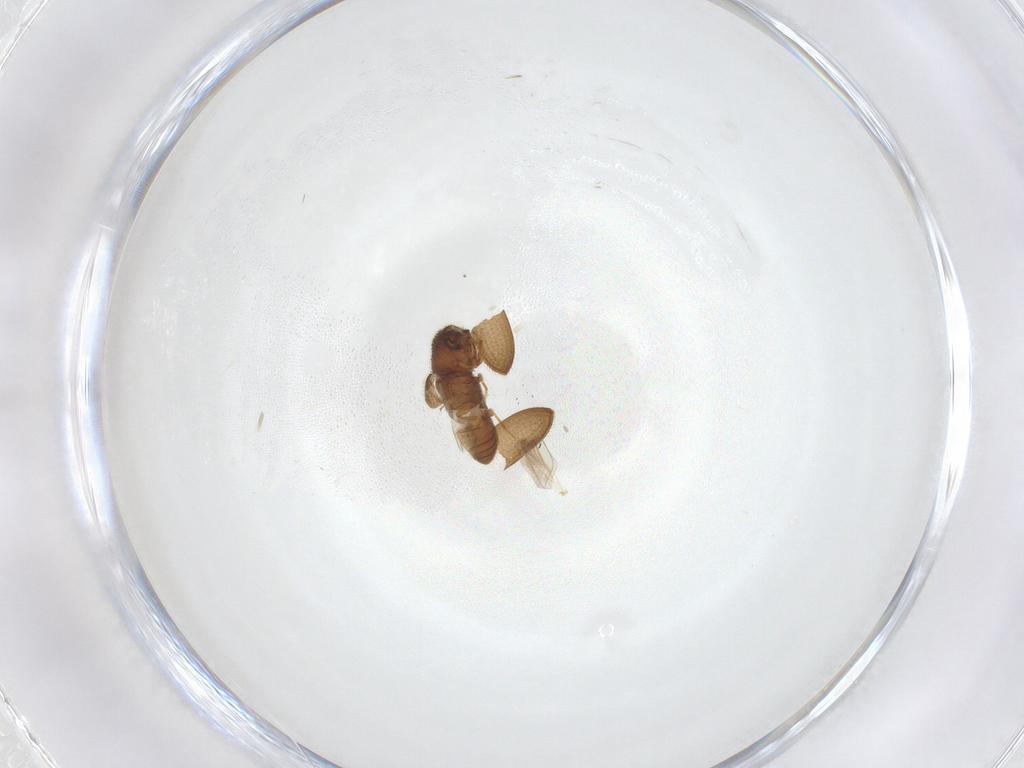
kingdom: Animalia
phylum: Arthropoda
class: Insecta
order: Coleoptera
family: Curculionidae
